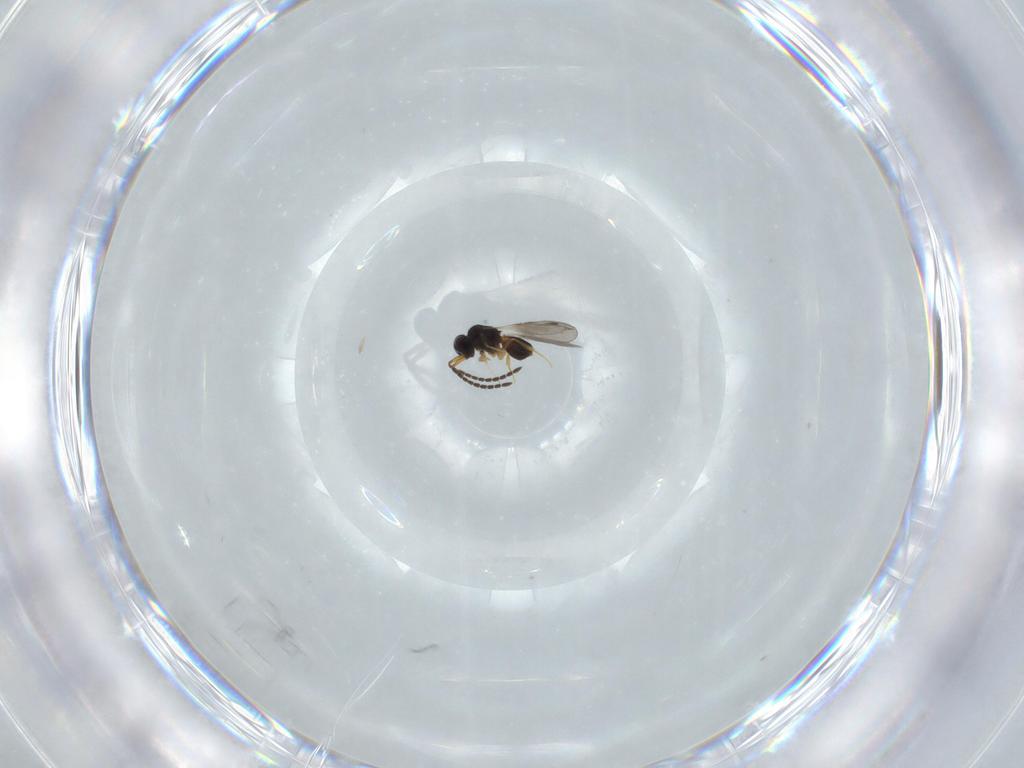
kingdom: Animalia
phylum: Arthropoda
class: Insecta
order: Hymenoptera
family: Ceraphronidae
